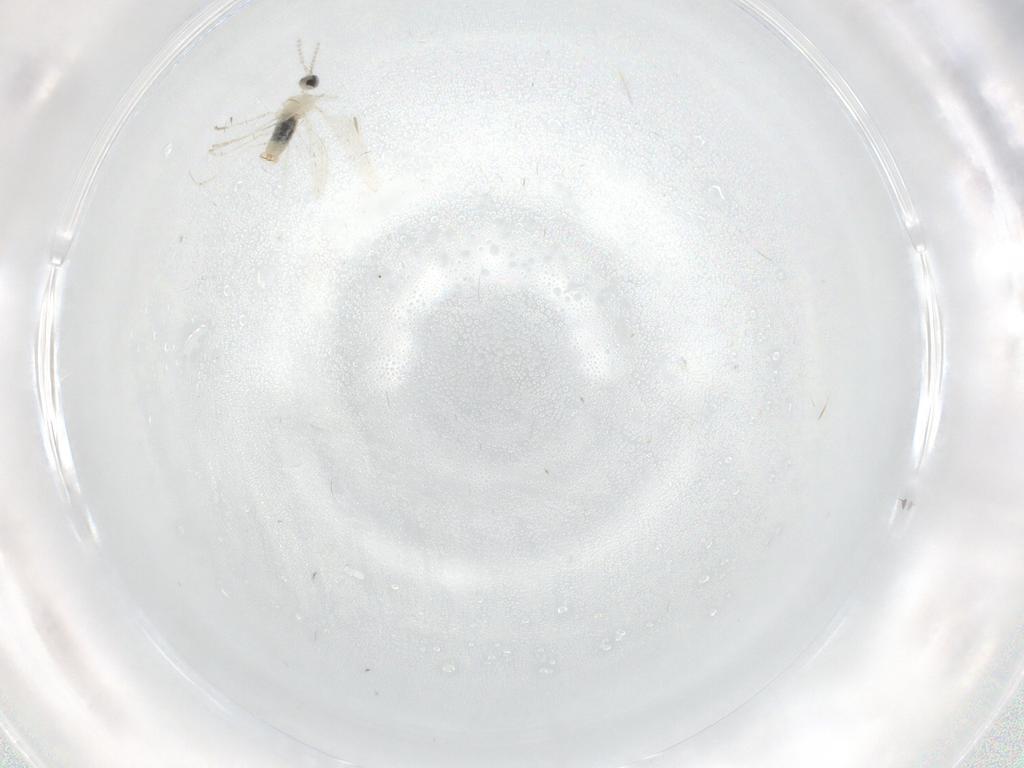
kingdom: Animalia
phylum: Arthropoda
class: Insecta
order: Diptera
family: Cecidomyiidae
